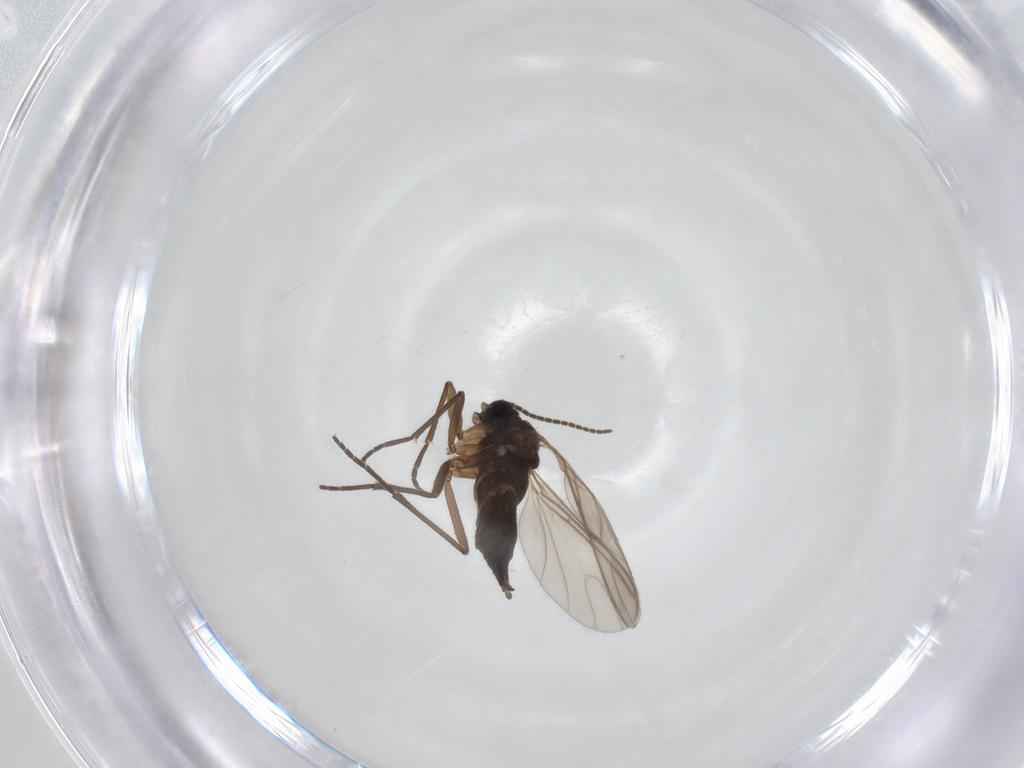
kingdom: Animalia
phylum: Arthropoda
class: Insecta
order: Diptera
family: Sciaridae
